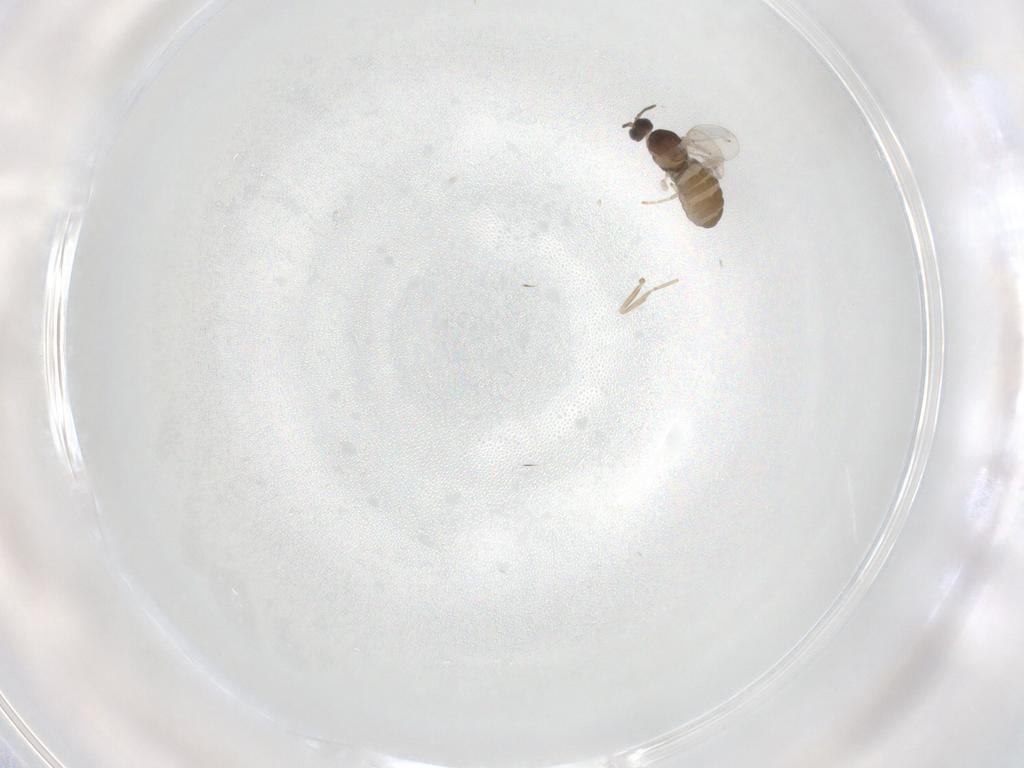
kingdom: Animalia
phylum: Arthropoda
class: Insecta
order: Diptera
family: Cecidomyiidae
